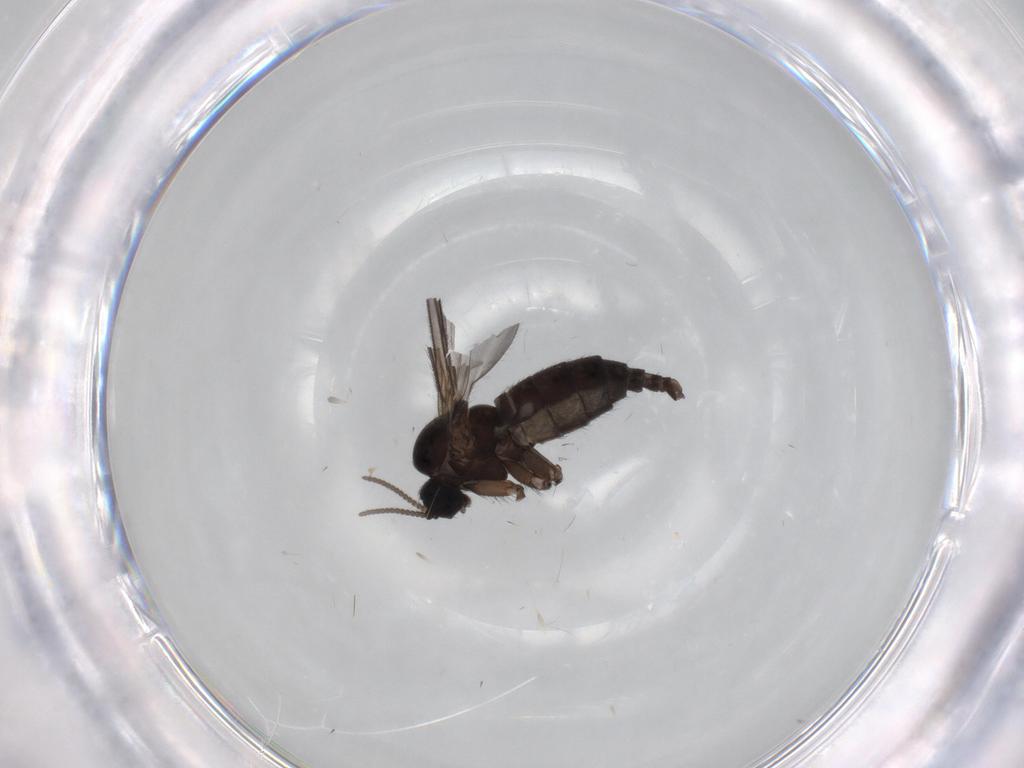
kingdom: Animalia
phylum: Arthropoda
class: Insecta
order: Diptera
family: Sciaridae
